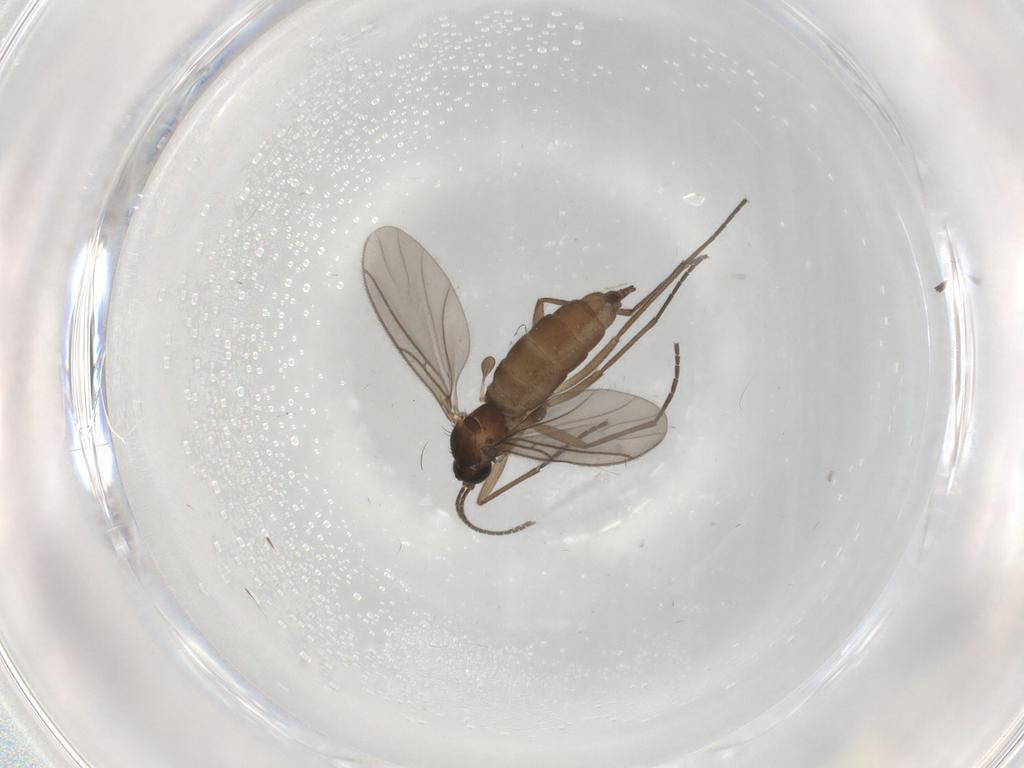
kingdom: Animalia
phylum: Arthropoda
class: Insecta
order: Diptera
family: Sciaridae
